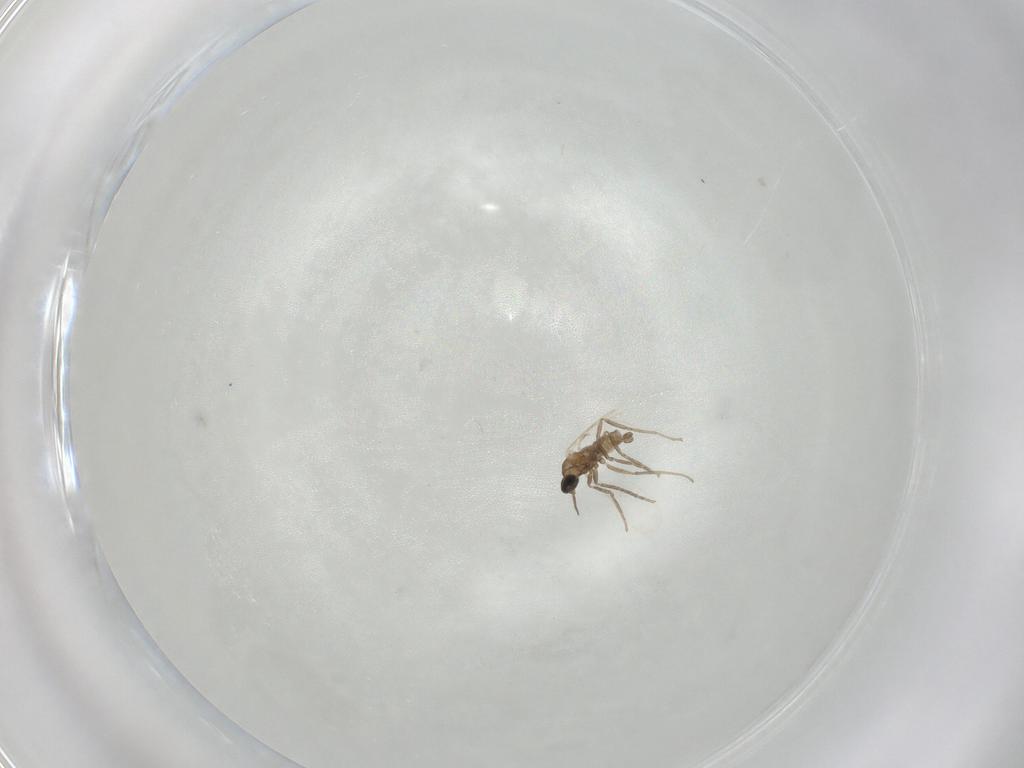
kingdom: Animalia
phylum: Arthropoda
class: Insecta
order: Diptera
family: Cecidomyiidae
